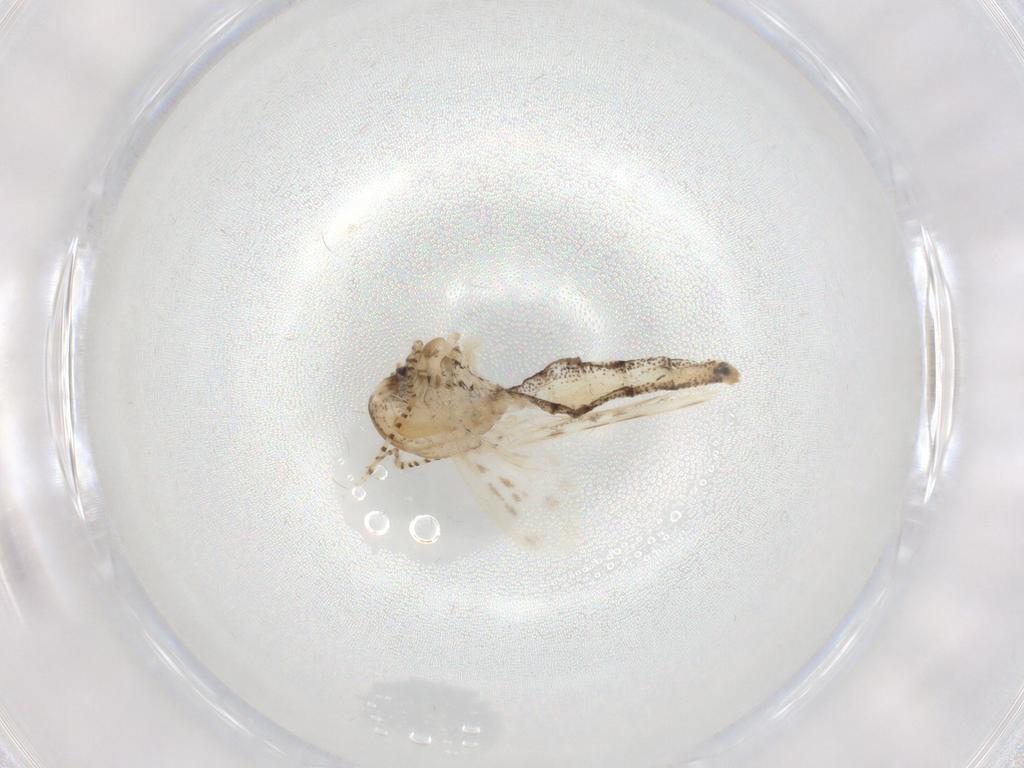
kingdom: Animalia
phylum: Arthropoda
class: Insecta
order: Diptera
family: Chaoboridae
